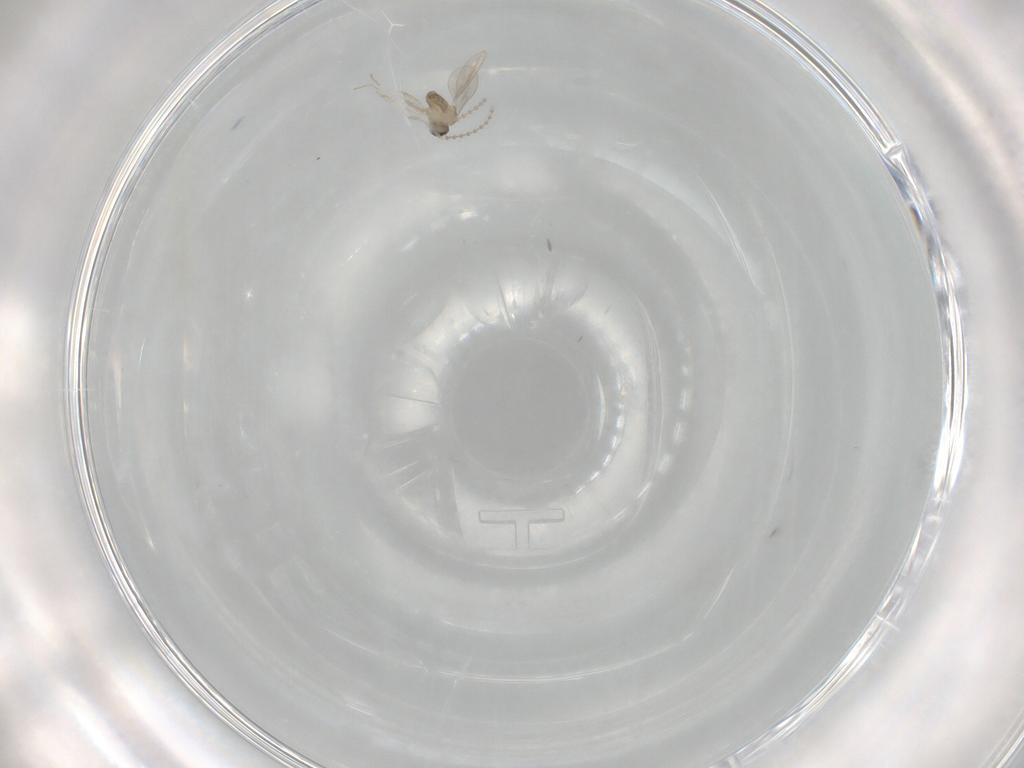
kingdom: Animalia
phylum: Arthropoda
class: Insecta
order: Diptera
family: Cecidomyiidae
